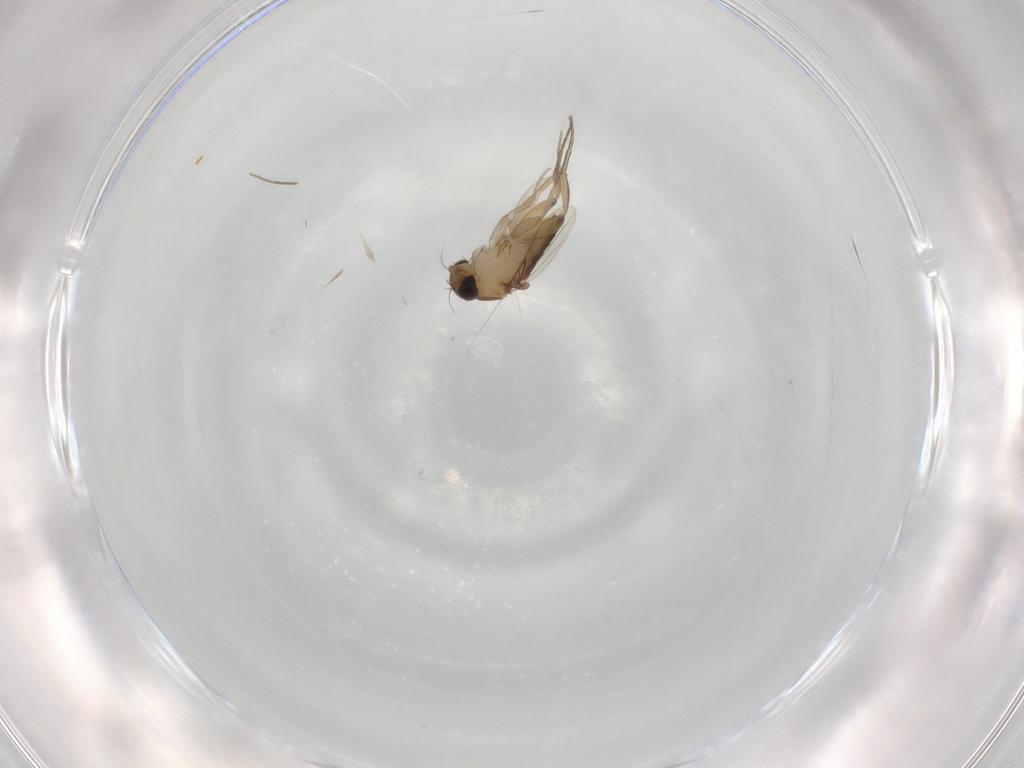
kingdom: Animalia
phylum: Arthropoda
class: Insecta
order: Diptera
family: Phoridae
